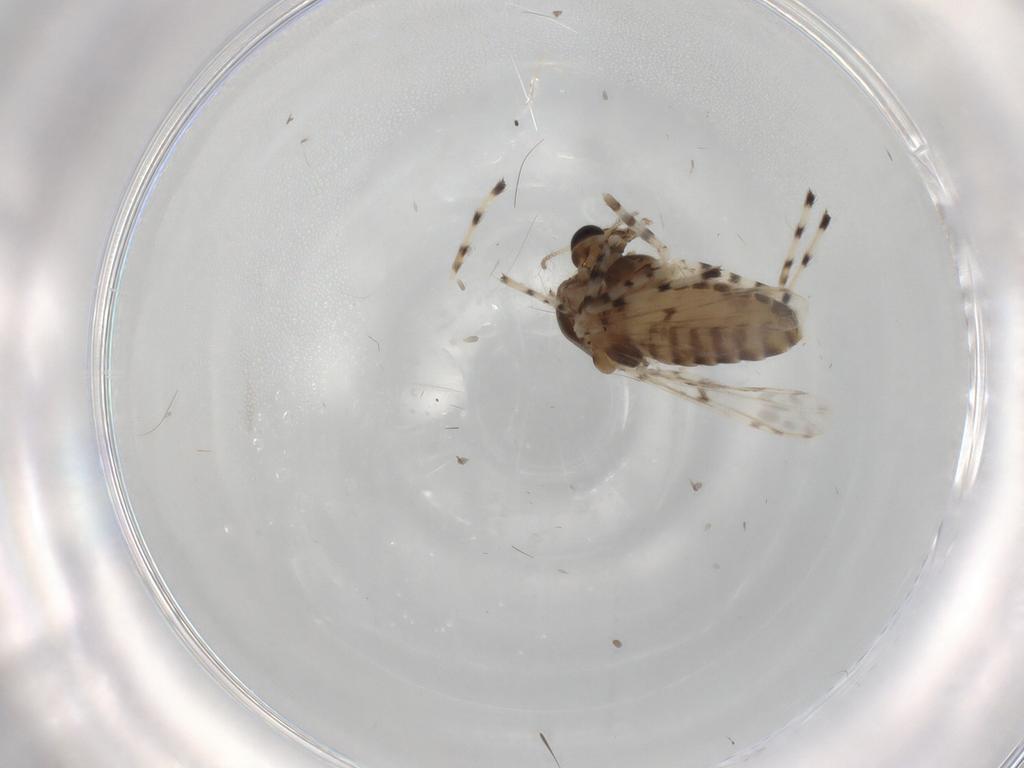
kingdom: Animalia
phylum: Arthropoda
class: Insecta
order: Diptera
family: Chironomidae
